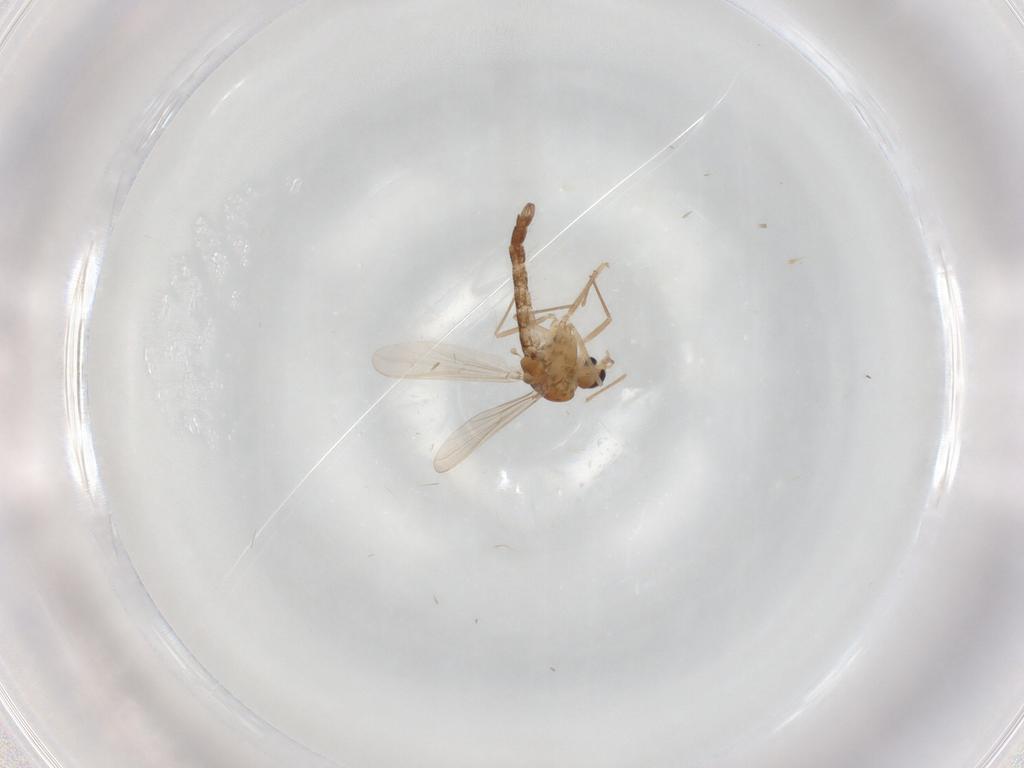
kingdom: Animalia
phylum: Arthropoda
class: Insecta
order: Diptera
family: Chironomidae
